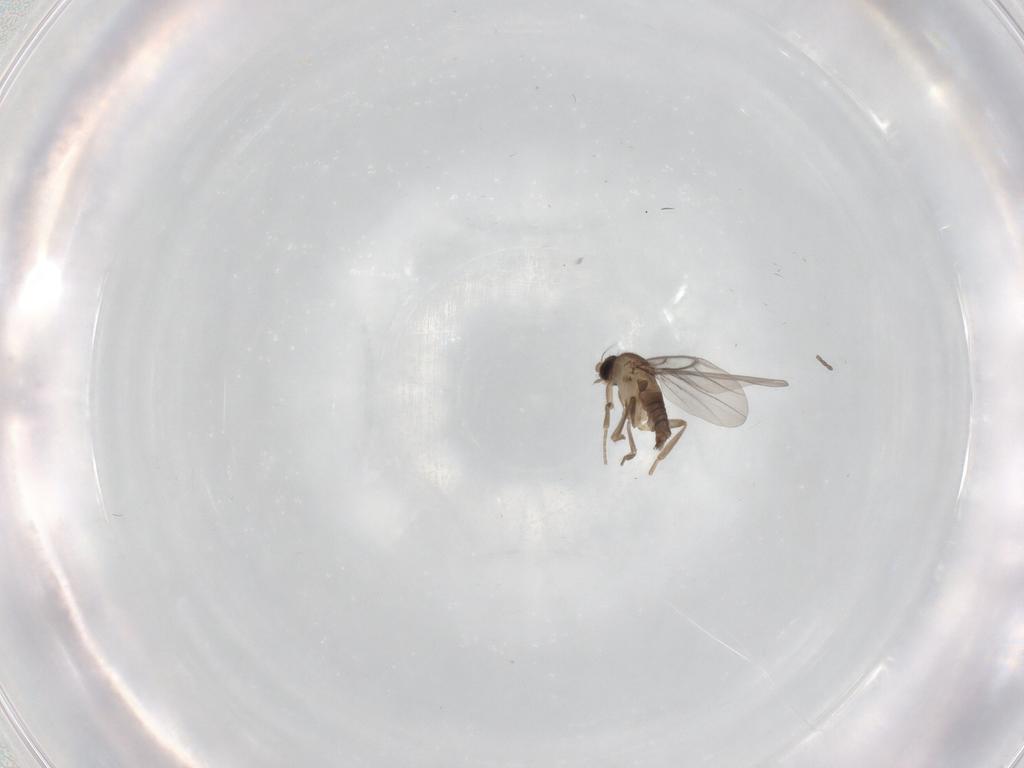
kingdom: Animalia
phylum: Arthropoda
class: Insecta
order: Diptera
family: Cecidomyiidae
